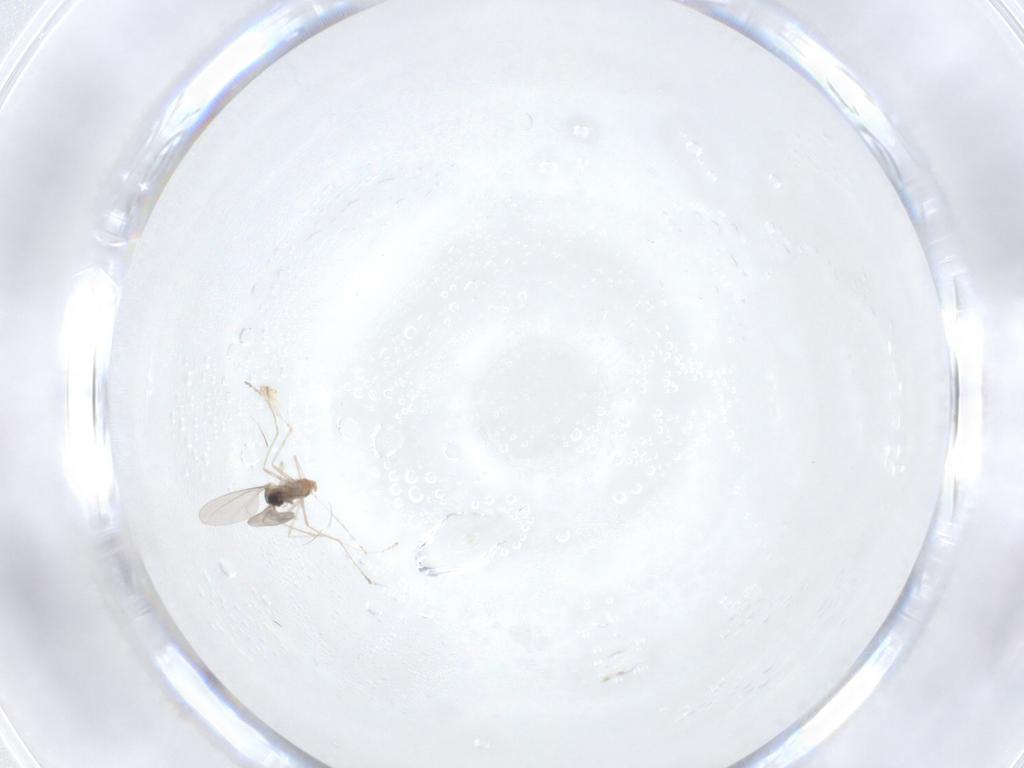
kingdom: Animalia
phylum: Arthropoda
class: Insecta
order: Diptera
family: Cecidomyiidae
